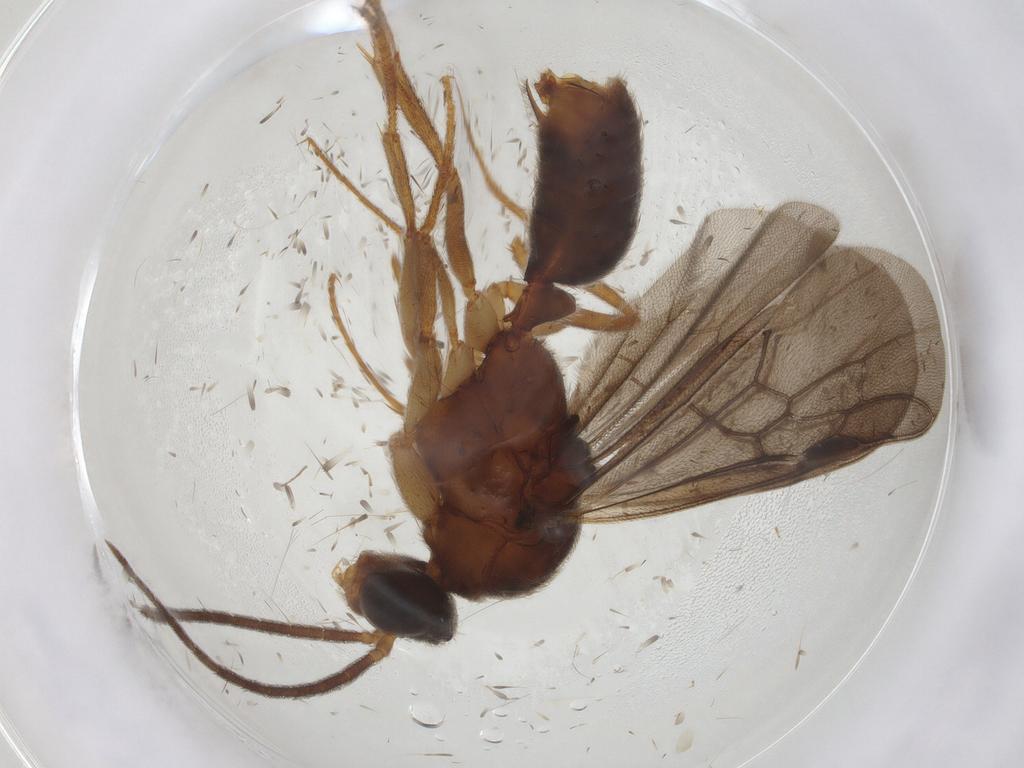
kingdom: Animalia
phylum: Arthropoda
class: Insecta
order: Hymenoptera
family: Formicidae
